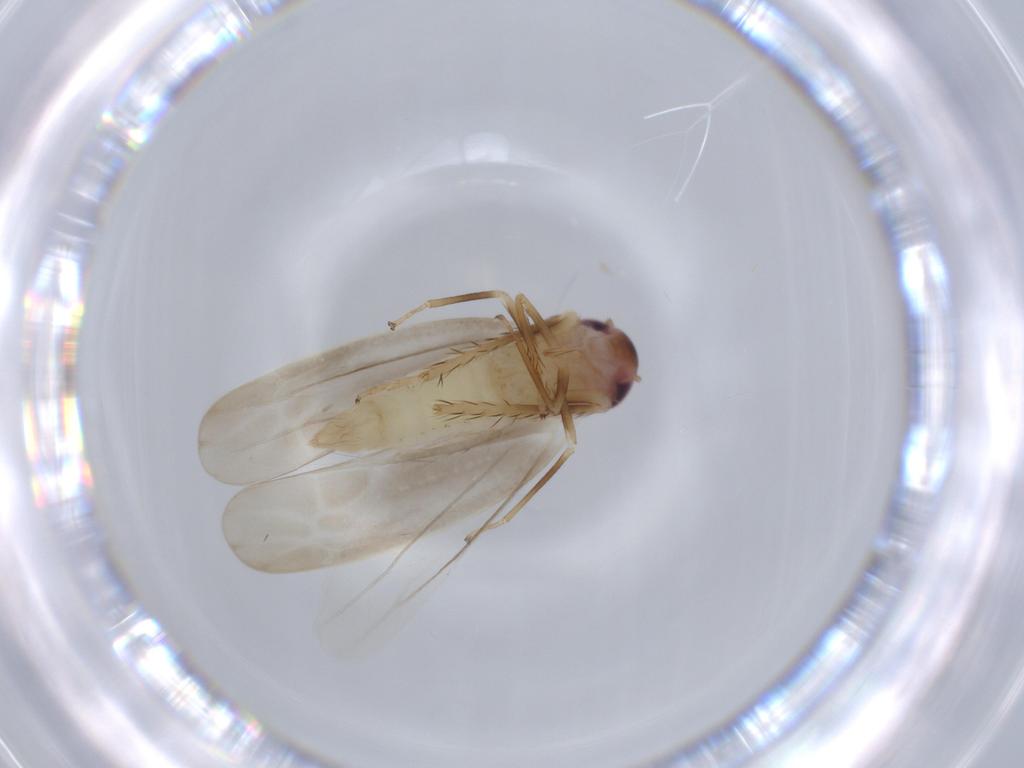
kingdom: Animalia
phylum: Arthropoda
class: Insecta
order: Hemiptera
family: Cicadellidae
